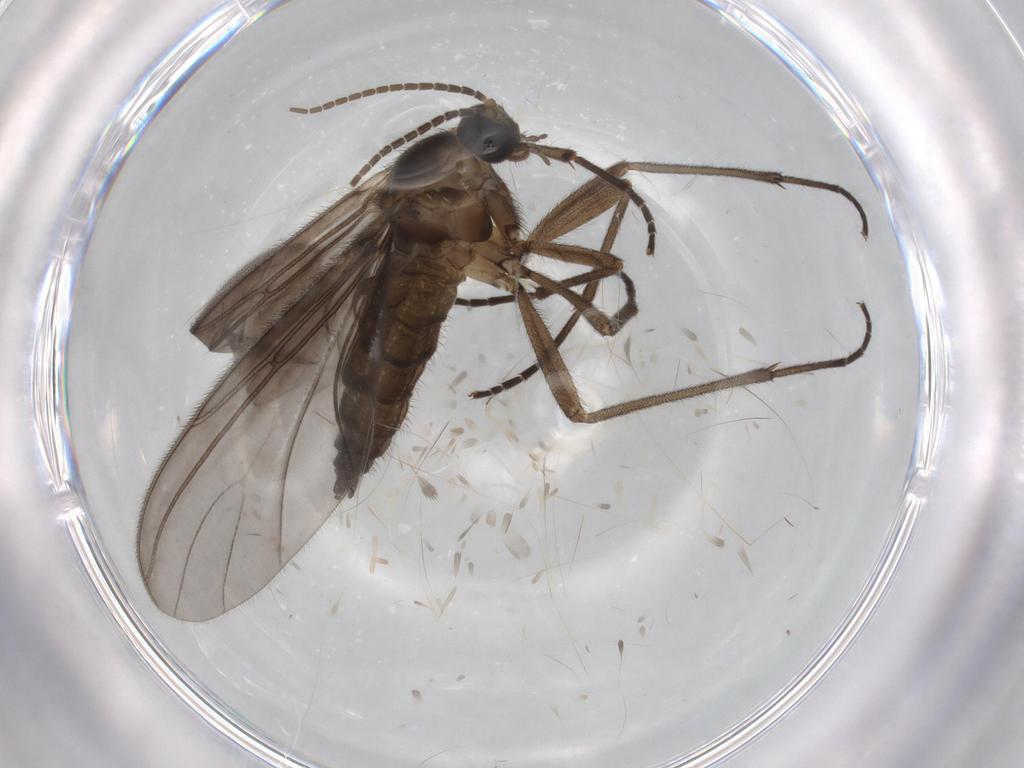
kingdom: Animalia
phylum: Arthropoda
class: Insecta
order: Diptera
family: Sciaridae
